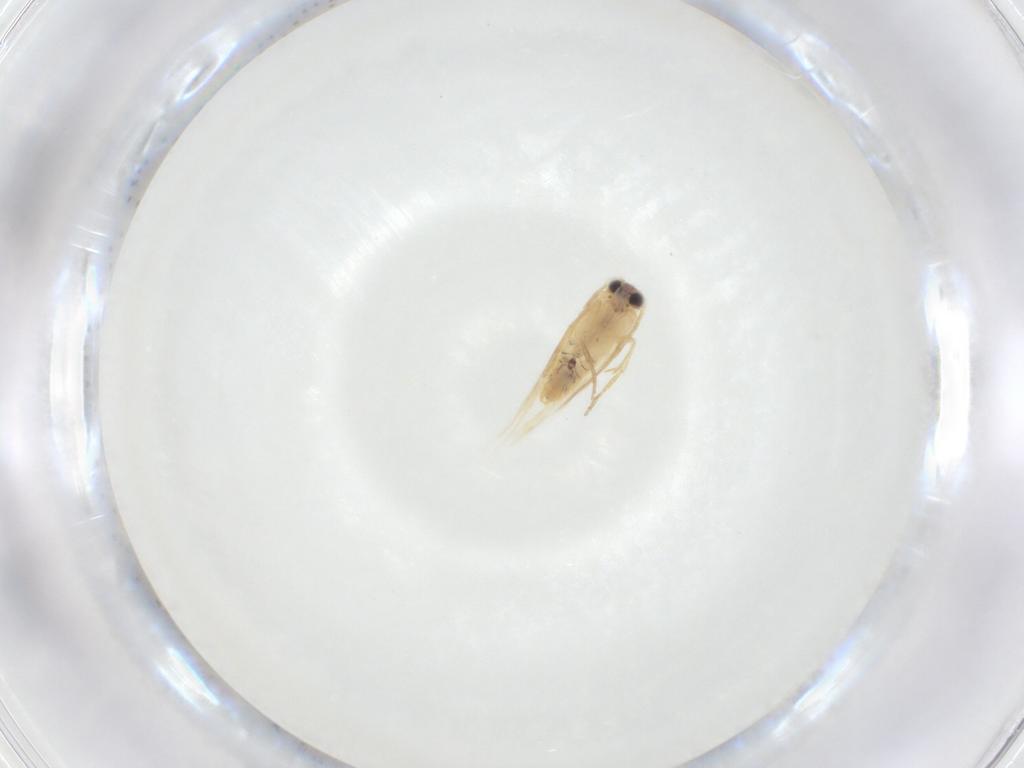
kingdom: Animalia
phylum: Arthropoda
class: Insecta
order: Lepidoptera
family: Nepticulidae
